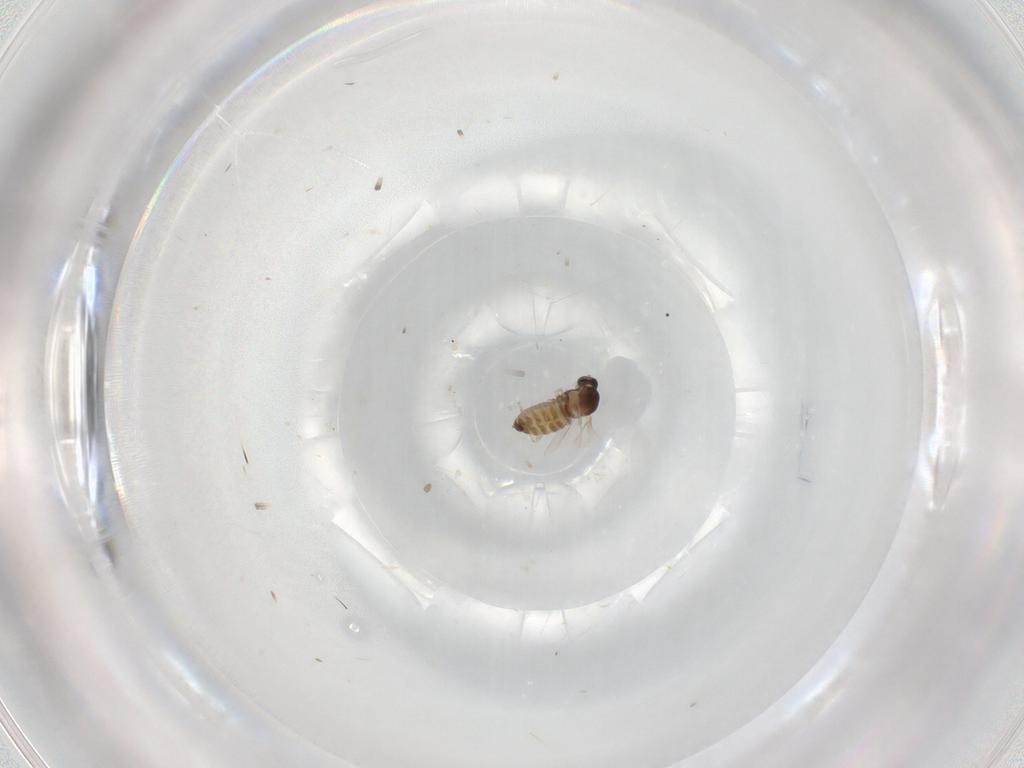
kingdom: Animalia
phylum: Arthropoda
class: Insecta
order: Diptera
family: Cecidomyiidae
